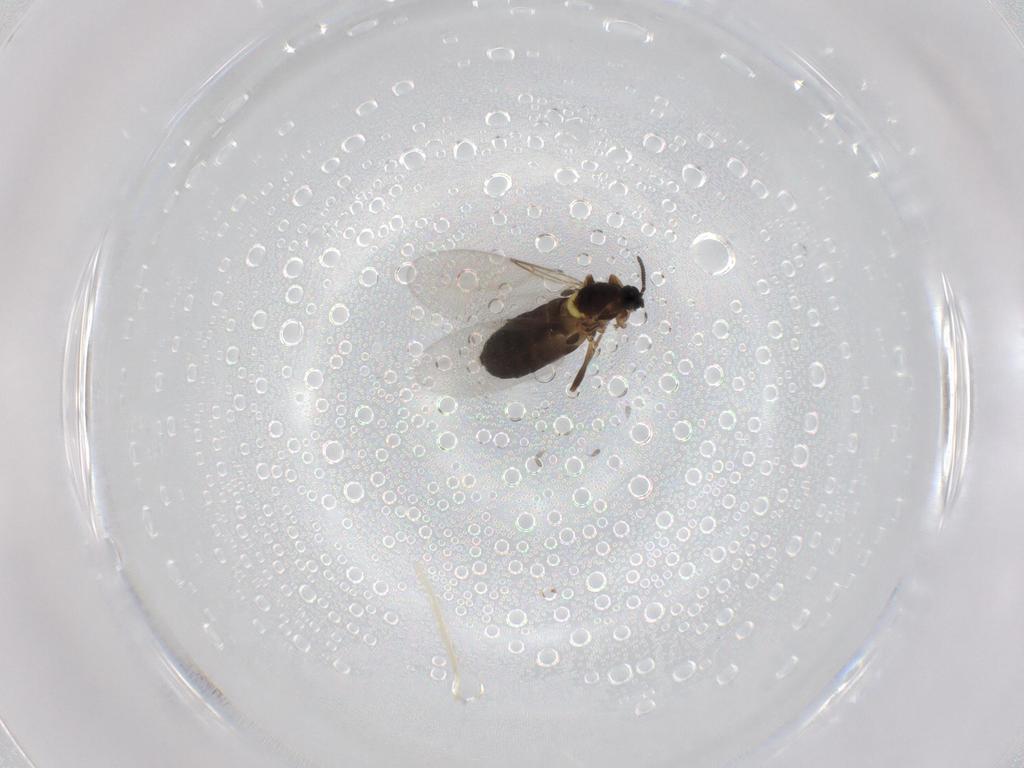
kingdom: Animalia
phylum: Arthropoda
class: Insecta
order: Diptera
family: Scatopsidae
